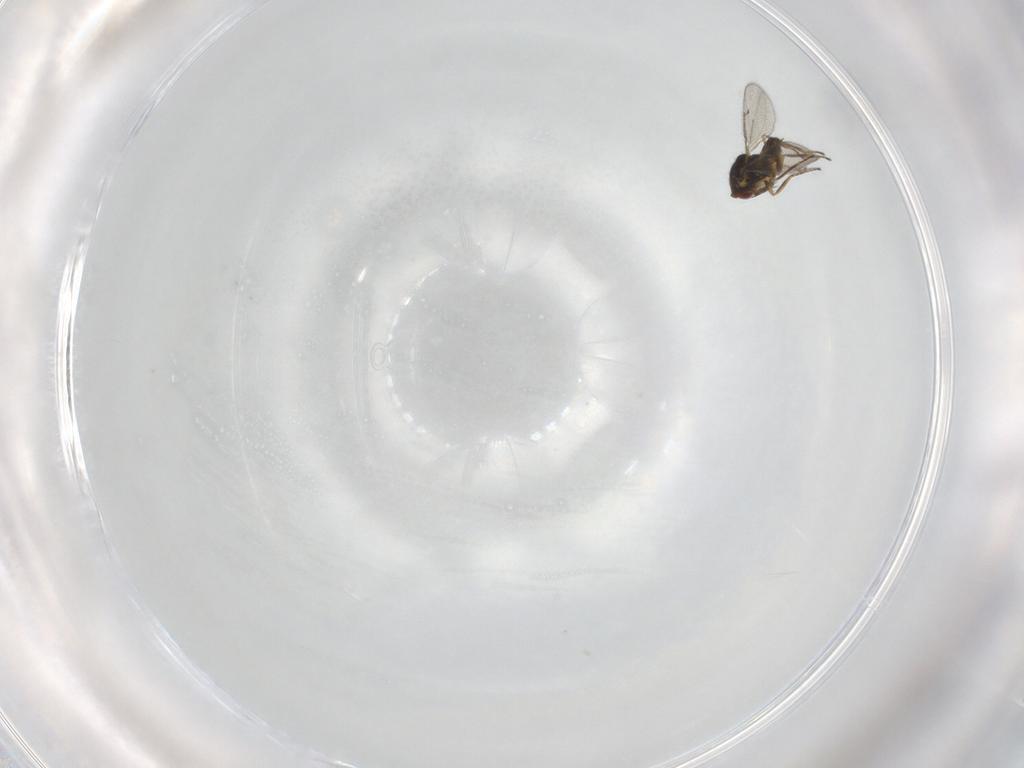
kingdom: Animalia
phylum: Arthropoda
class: Insecta
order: Hymenoptera
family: Eulophidae
